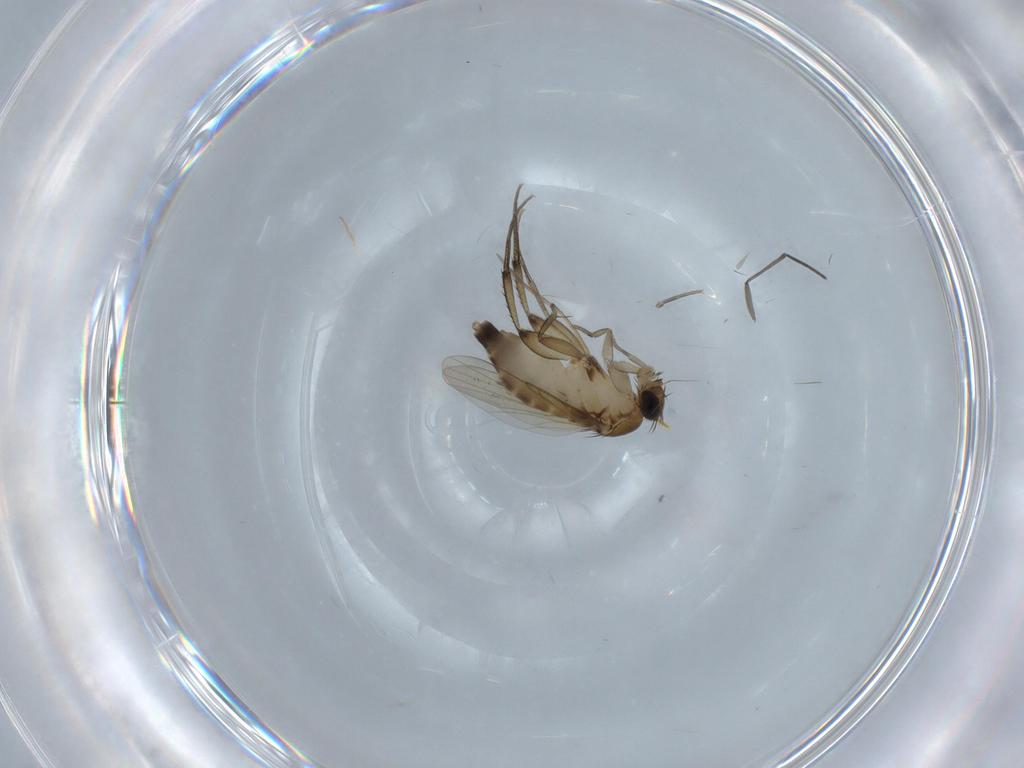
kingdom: Animalia
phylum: Arthropoda
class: Insecta
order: Diptera
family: Phoridae
